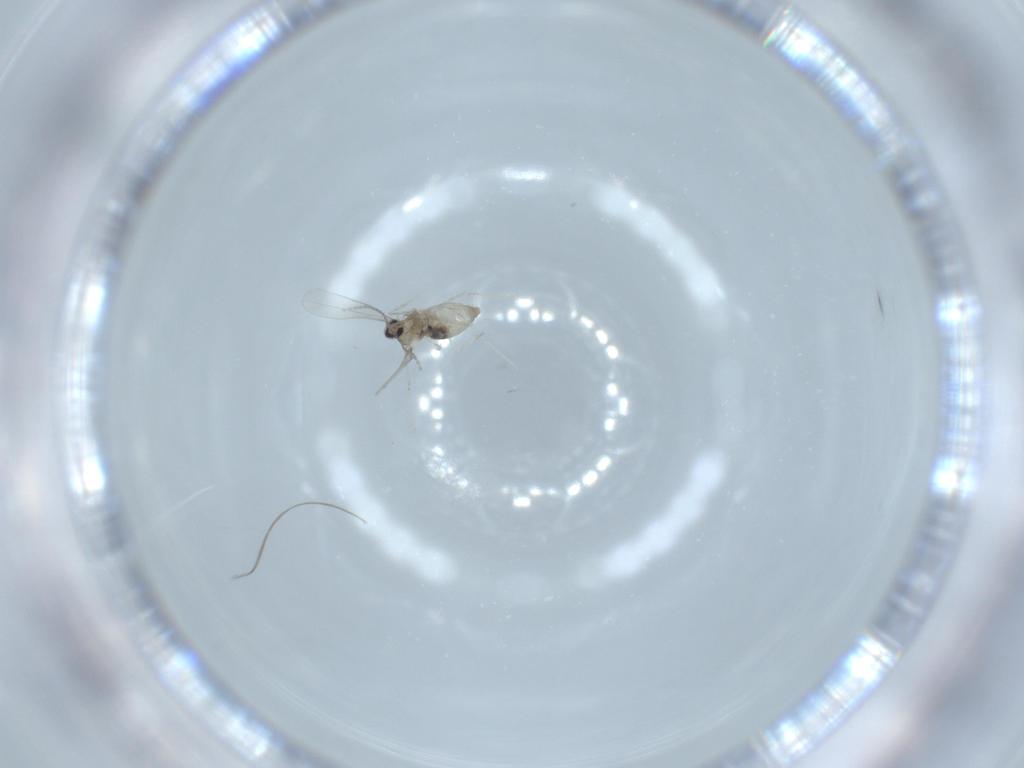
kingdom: Animalia
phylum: Arthropoda
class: Insecta
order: Diptera
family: Cecidomyiidae
